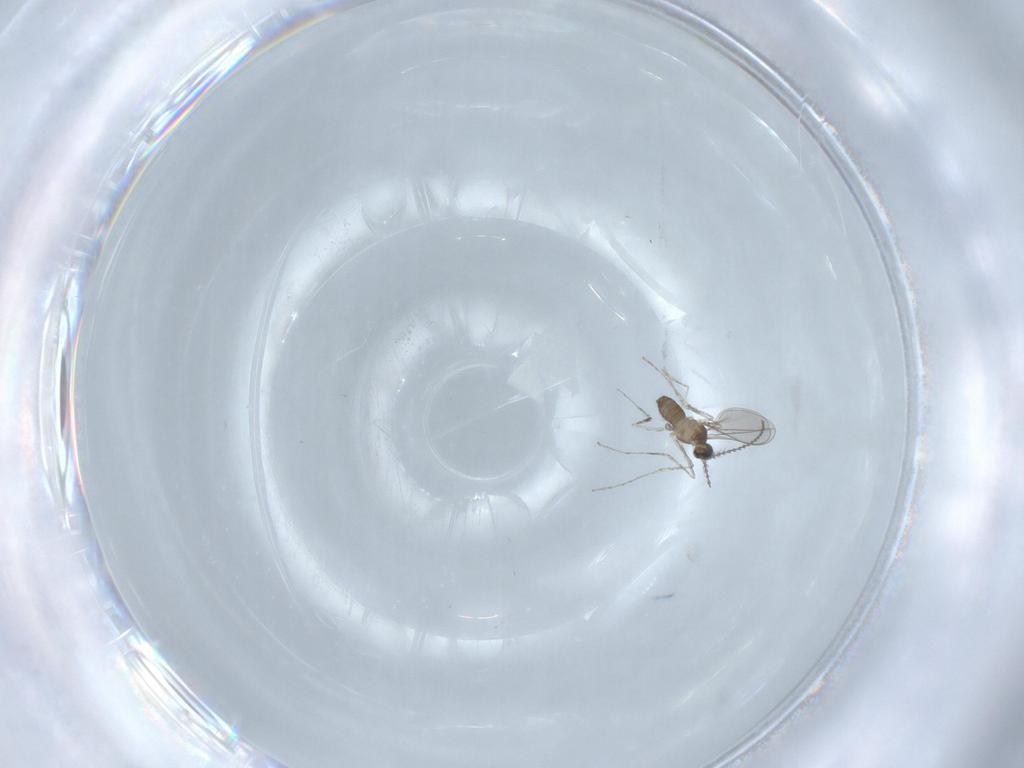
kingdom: Animalia
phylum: Arthropoda
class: Insecta
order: Diptera
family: Cecidomyiidae
